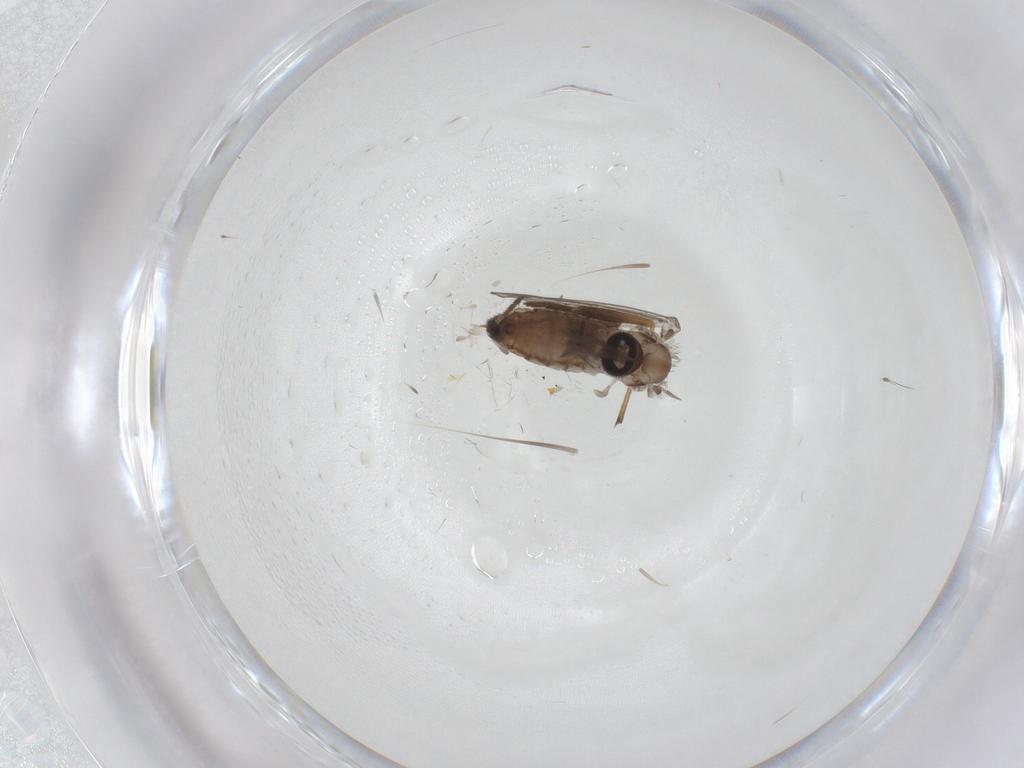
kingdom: Animalia
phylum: Arthropoda
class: Insecta
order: Diptera
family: Psychodidae
